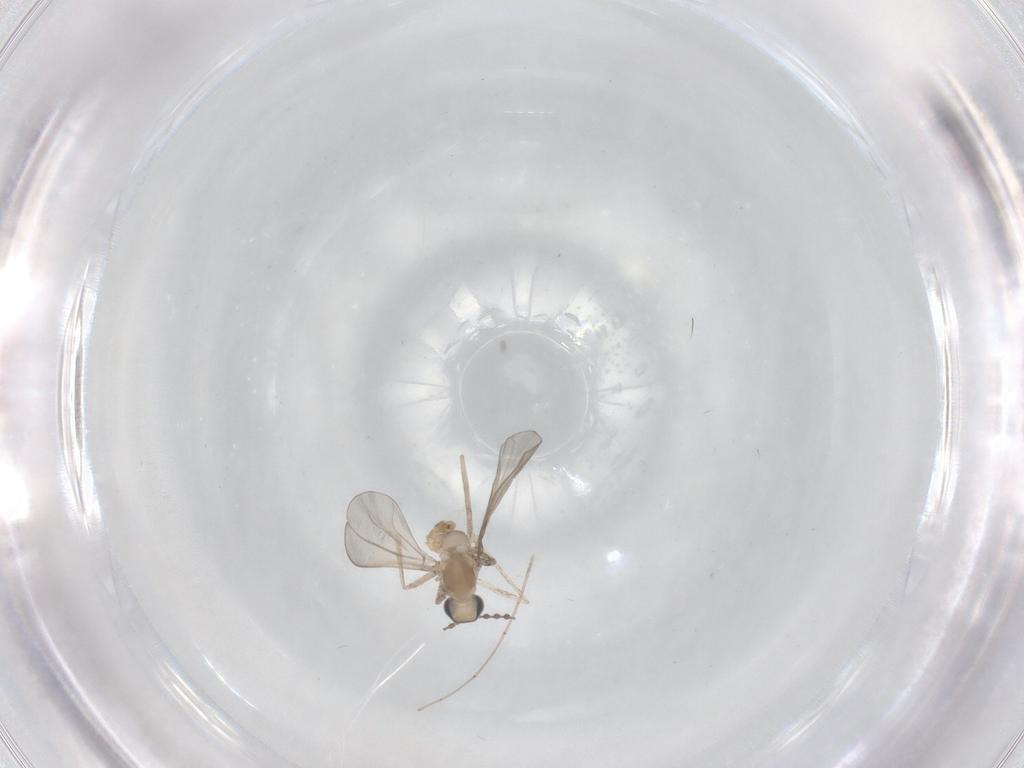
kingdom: Animalia
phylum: Arthropoda
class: Insecta
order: Diptera
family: Cecidomyiidae
